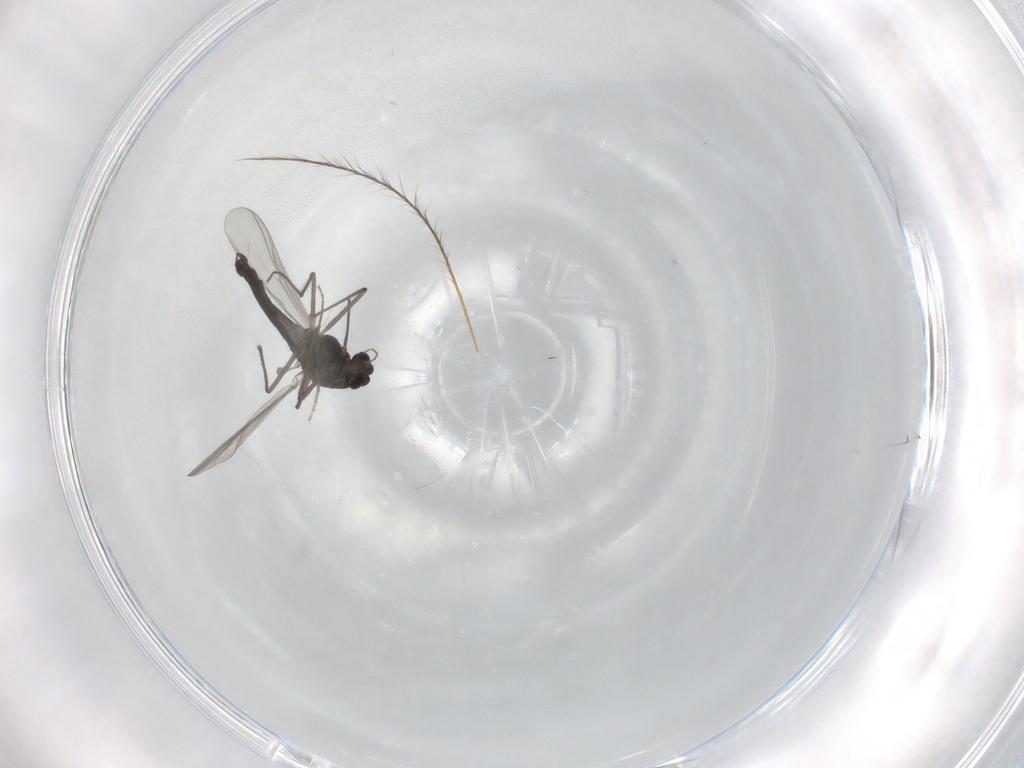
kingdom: Animalia
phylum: Arthropoda
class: Insecta
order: Diptera
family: Chironomidae
